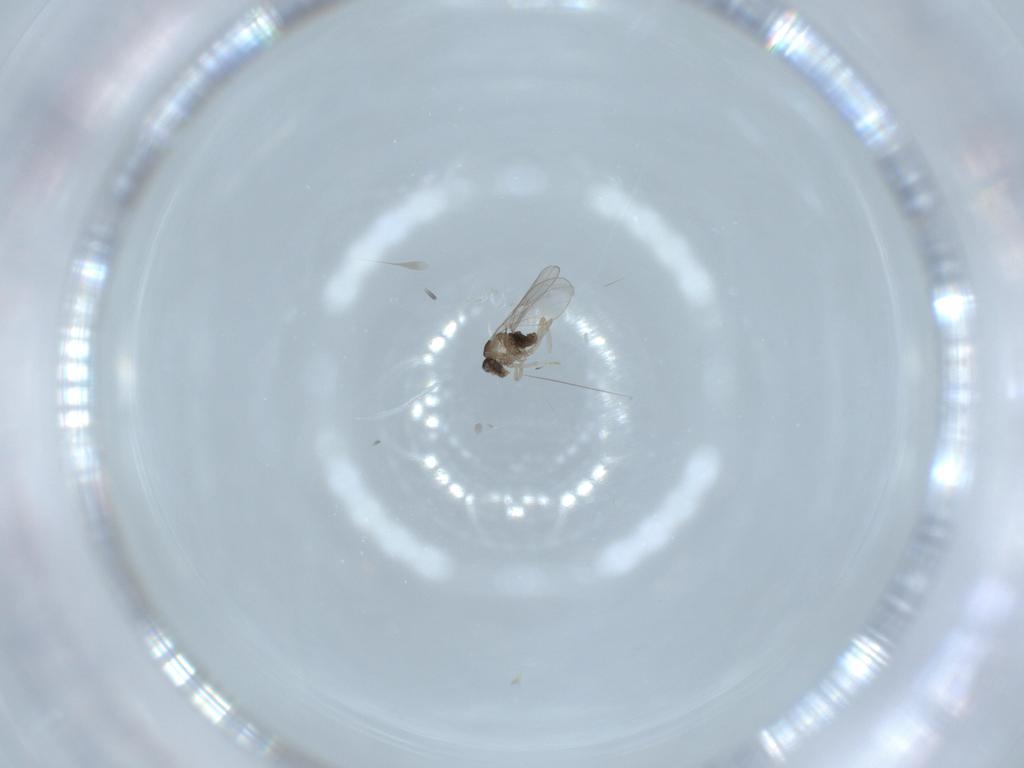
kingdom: Animalia
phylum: Arthropoda
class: Insecta
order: Diptera
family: Cecidomyiidae
